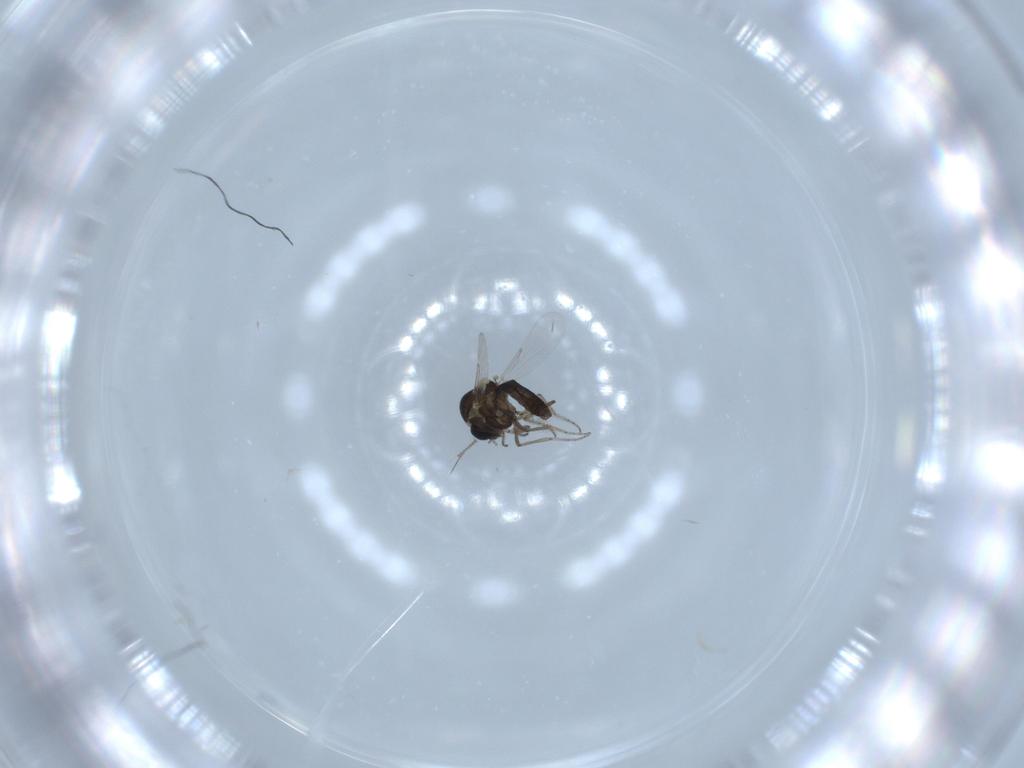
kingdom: Animalia
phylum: Arthropoda
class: Insecta
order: Diptera
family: Ceratopogonidae
